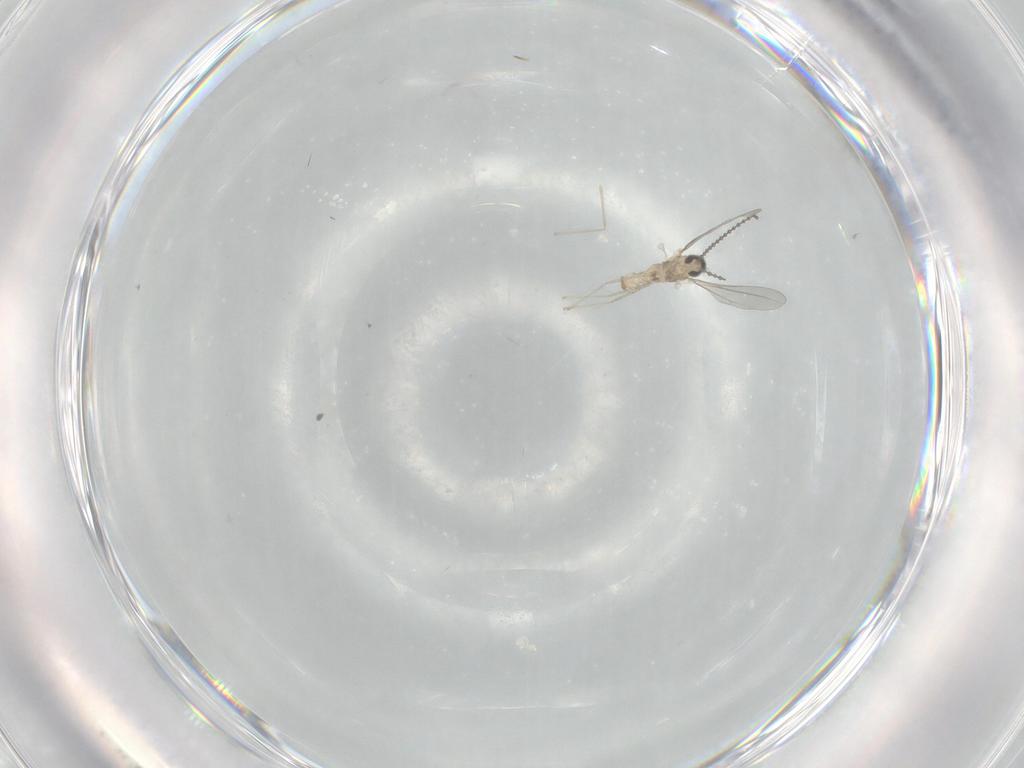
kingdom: Animalia
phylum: Arthropoda
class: Insecta
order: Diptera
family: Cecidomyiidae
